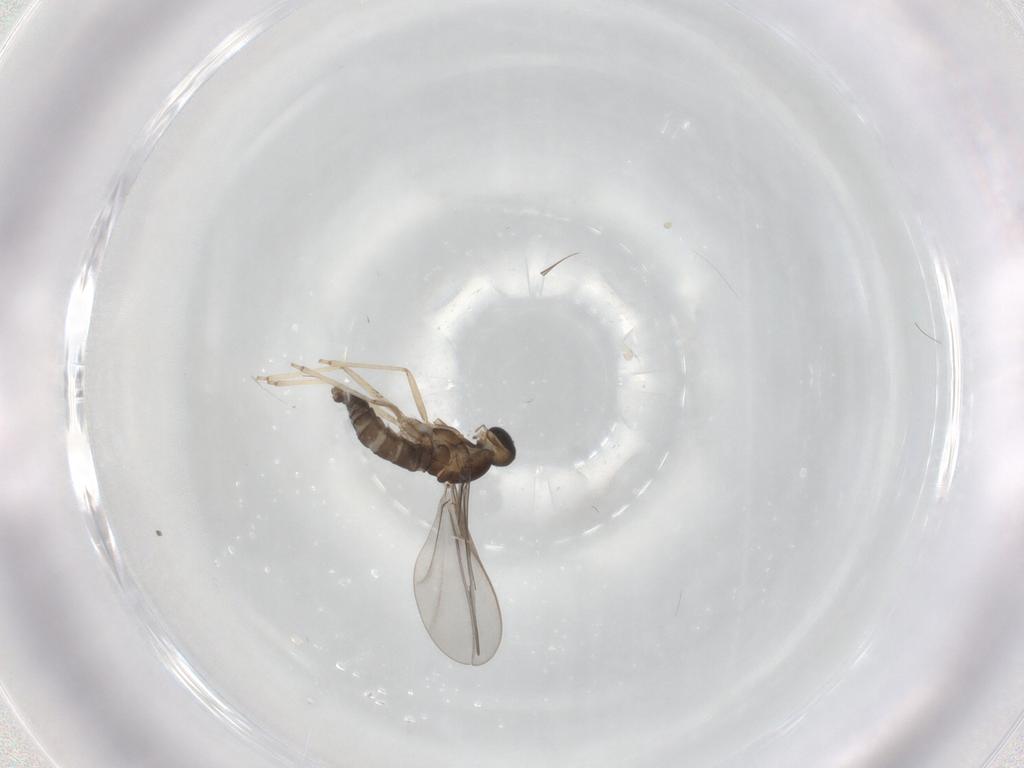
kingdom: Animalia
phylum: Arthropoda
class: Insecta
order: Diptera
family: Cecidomyiidae
